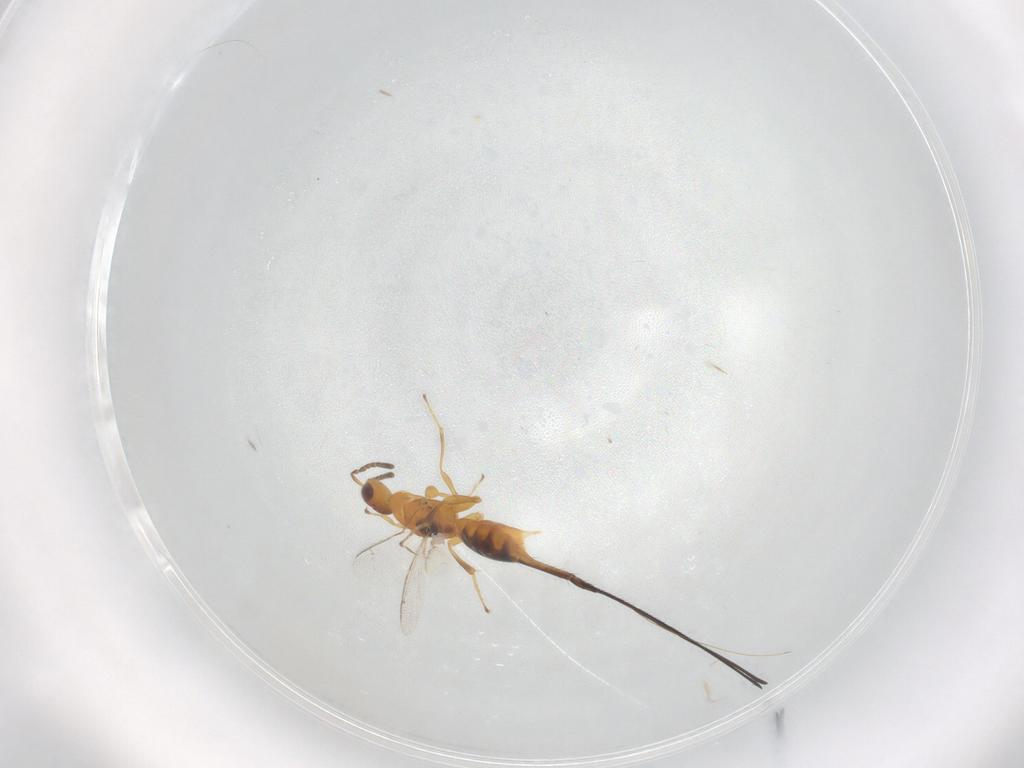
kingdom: Animalia
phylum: Arthropoda
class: Insecta
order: Hymenoptera
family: Pteromalidae
